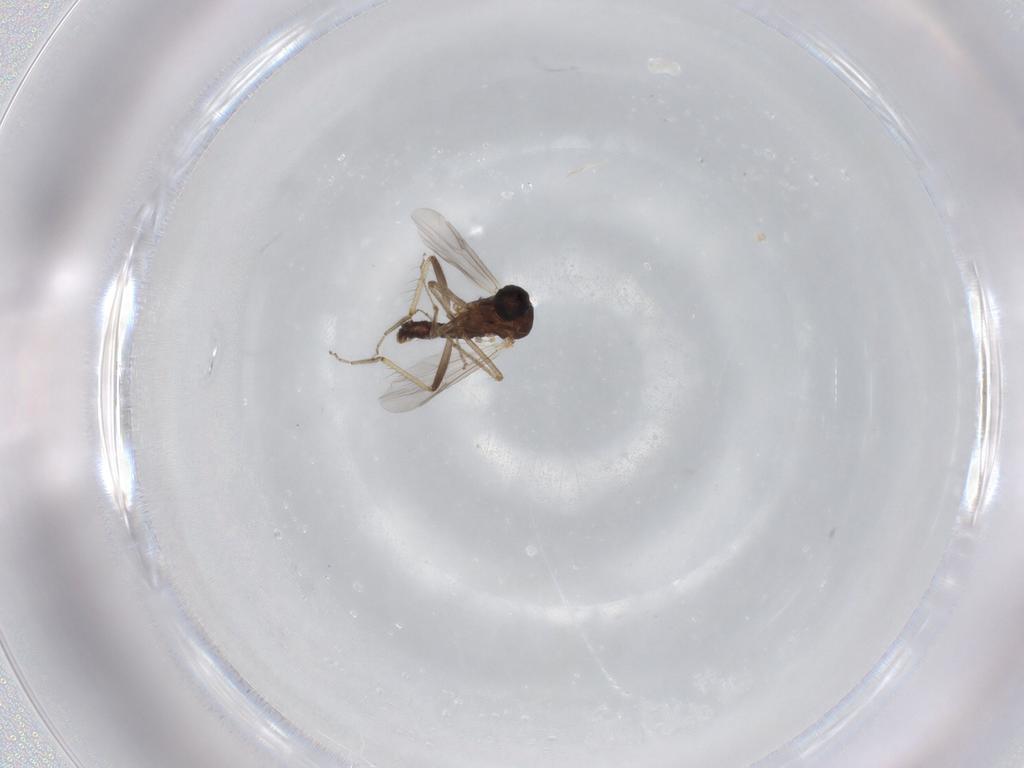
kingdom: Animalia
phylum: Arthropoda
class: Insecta
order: Diptera
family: Ceratopogonidae
